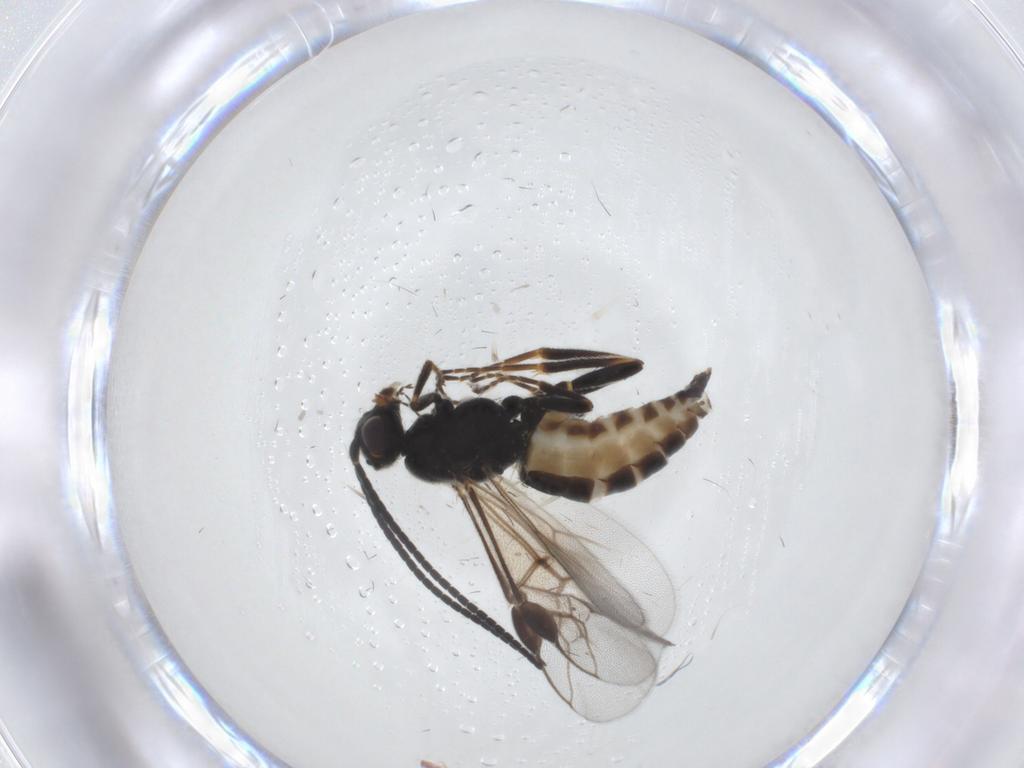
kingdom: Animalia
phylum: Arthropoda
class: Insecta
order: Hymenoptera
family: Braconidae
